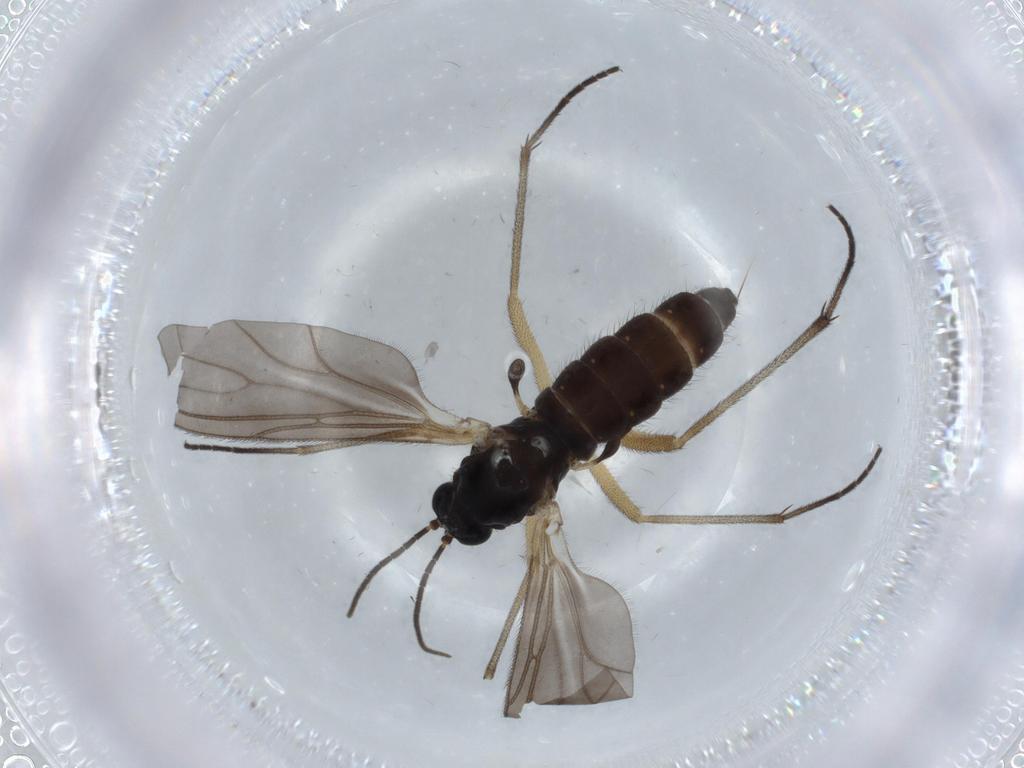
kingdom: Animalia
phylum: Arthropoda
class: Insecta
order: Diptera
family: Sciaridae
